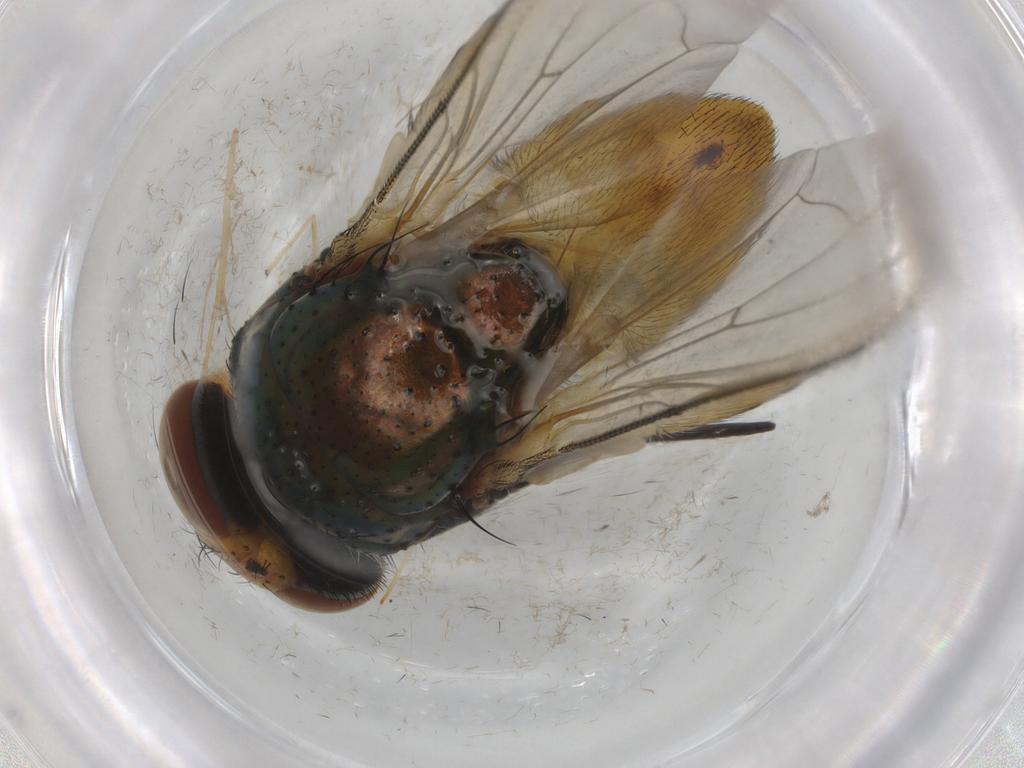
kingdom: Animalia
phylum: Arthropoda
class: Insecta
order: Diptera
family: Calliphoridae
